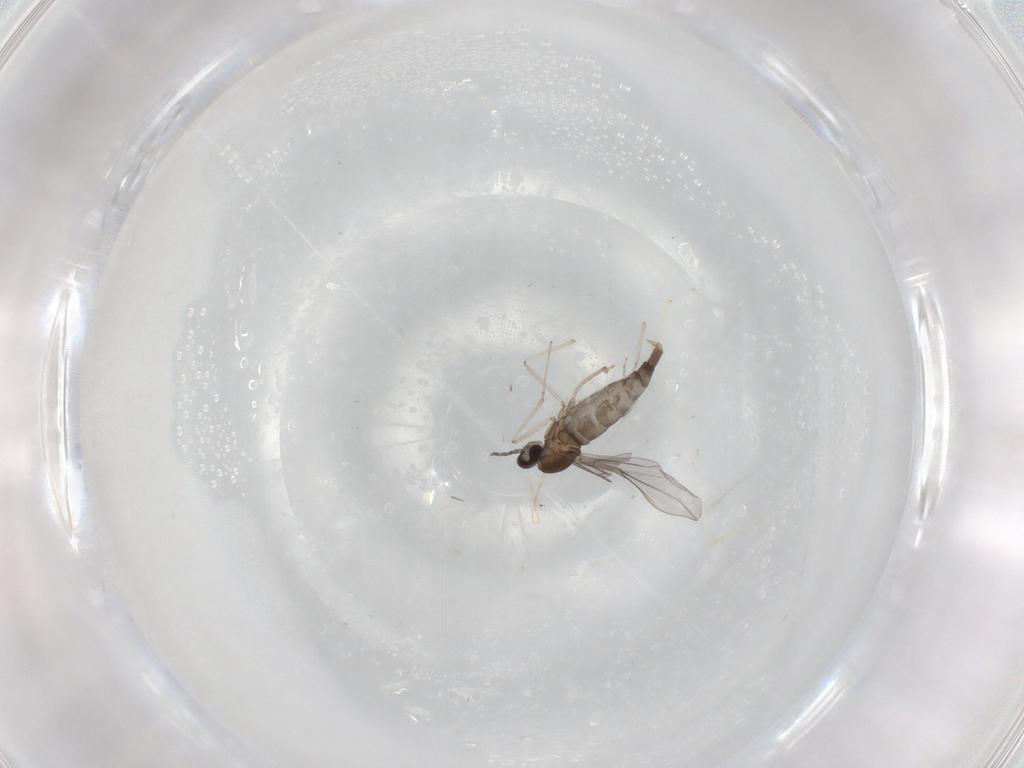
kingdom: Animalia
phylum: Arthropoda
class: Insecta
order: Diptera
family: Cecidomyiidae
